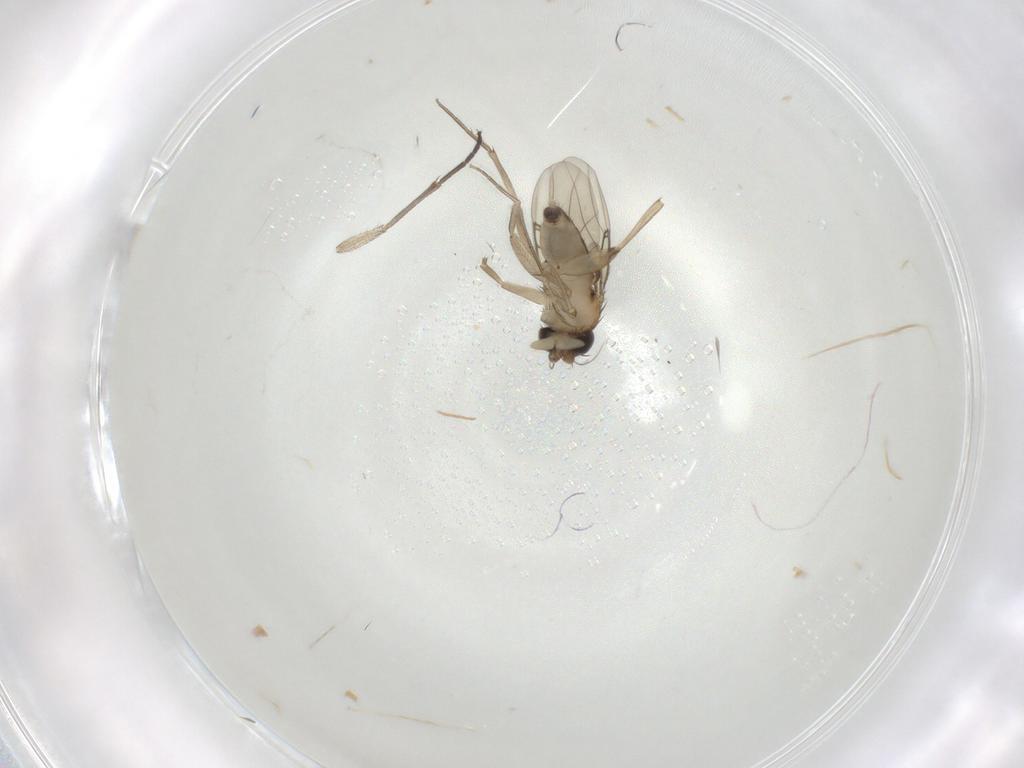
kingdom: Animalia
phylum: Arthropoda
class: Insecta
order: Diptera
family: Phoridae
